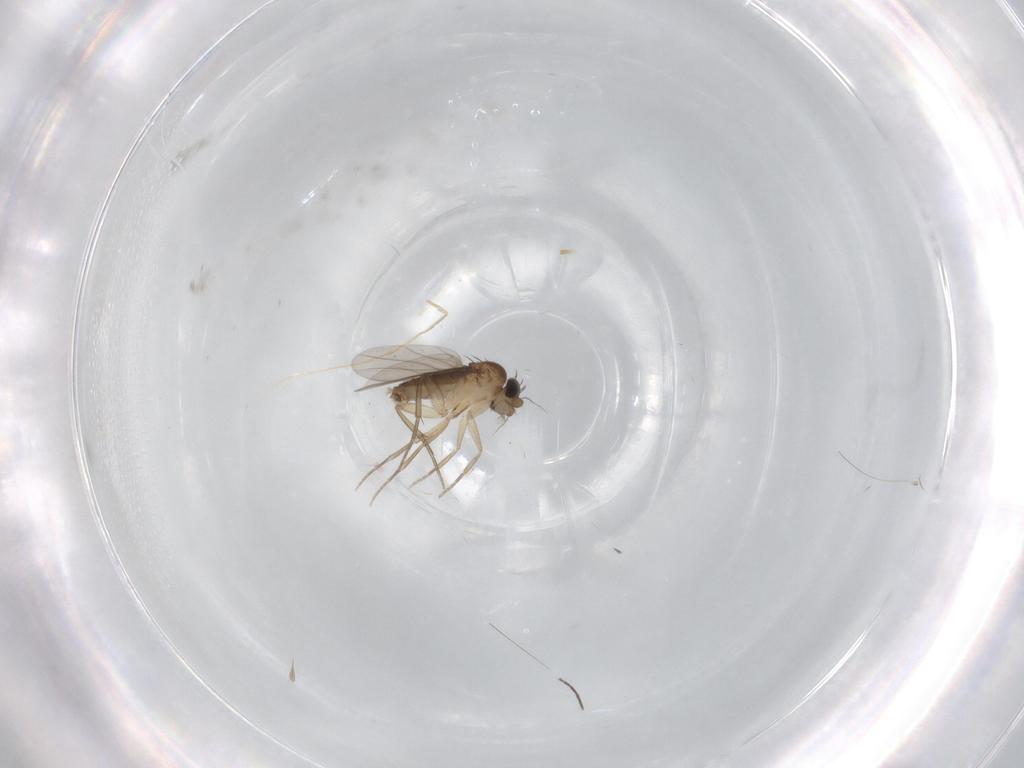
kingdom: Animalia
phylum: Arthropoda
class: Insecta
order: Diptera
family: Phoridae
